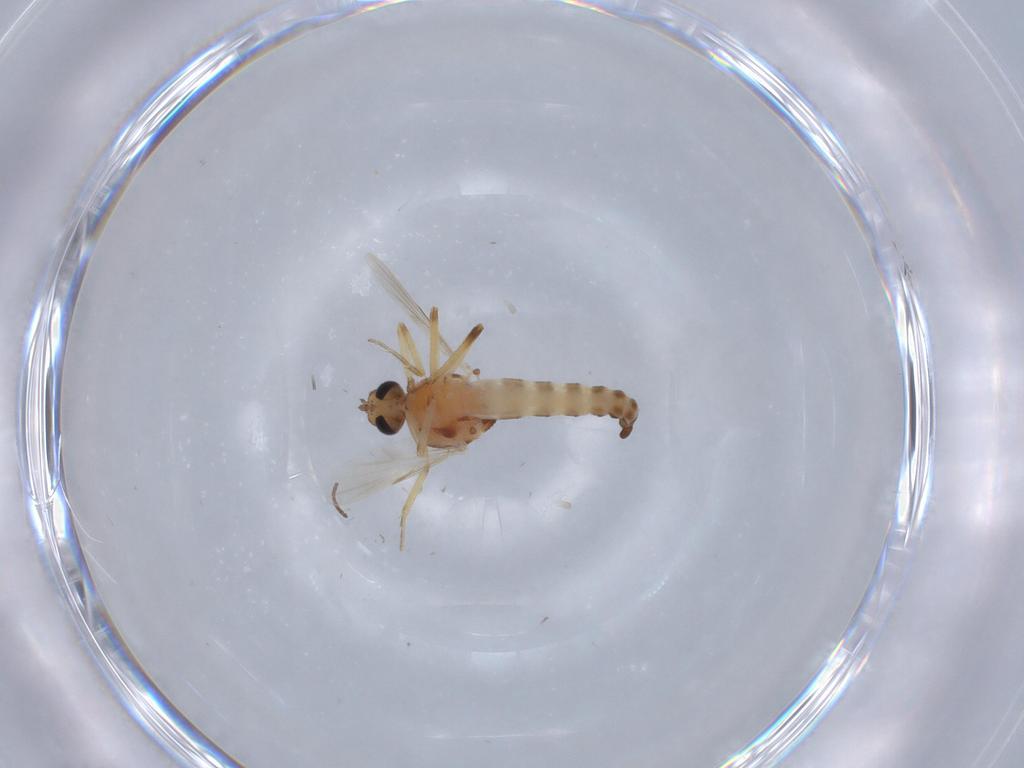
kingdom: Animalia
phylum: Arthropoda
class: Insecta
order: Diptera
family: Ceratopogonidae
